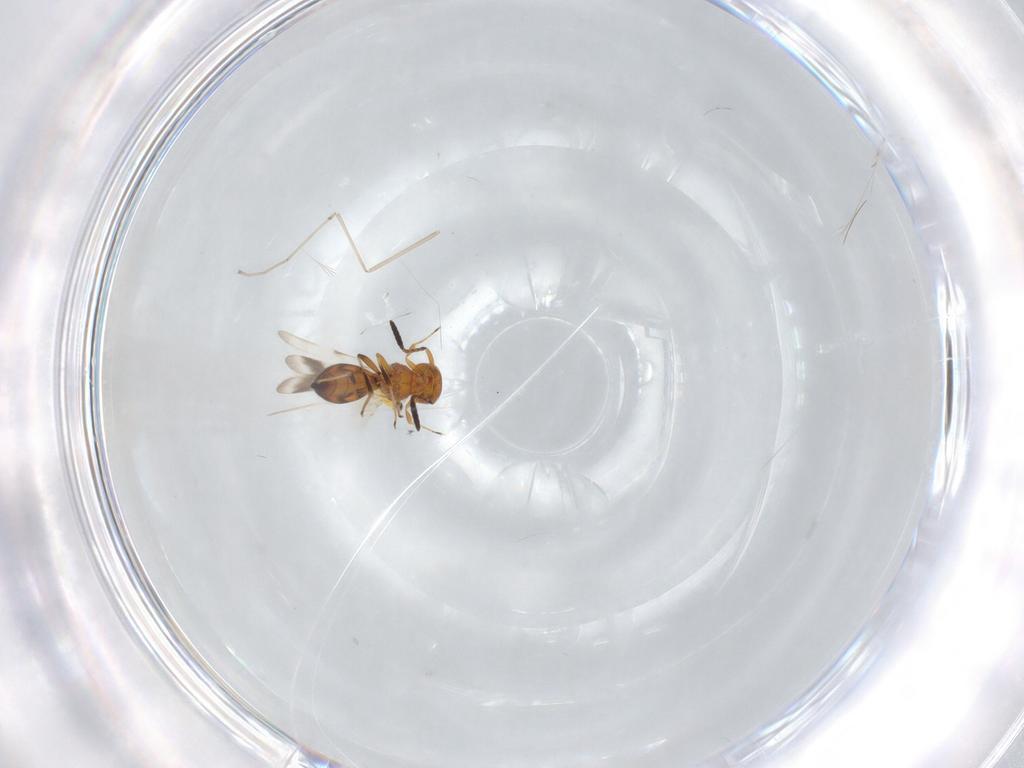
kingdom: Animalia
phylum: Arthropoda
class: Insecta
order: Hymenoptera
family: Scelionidae
